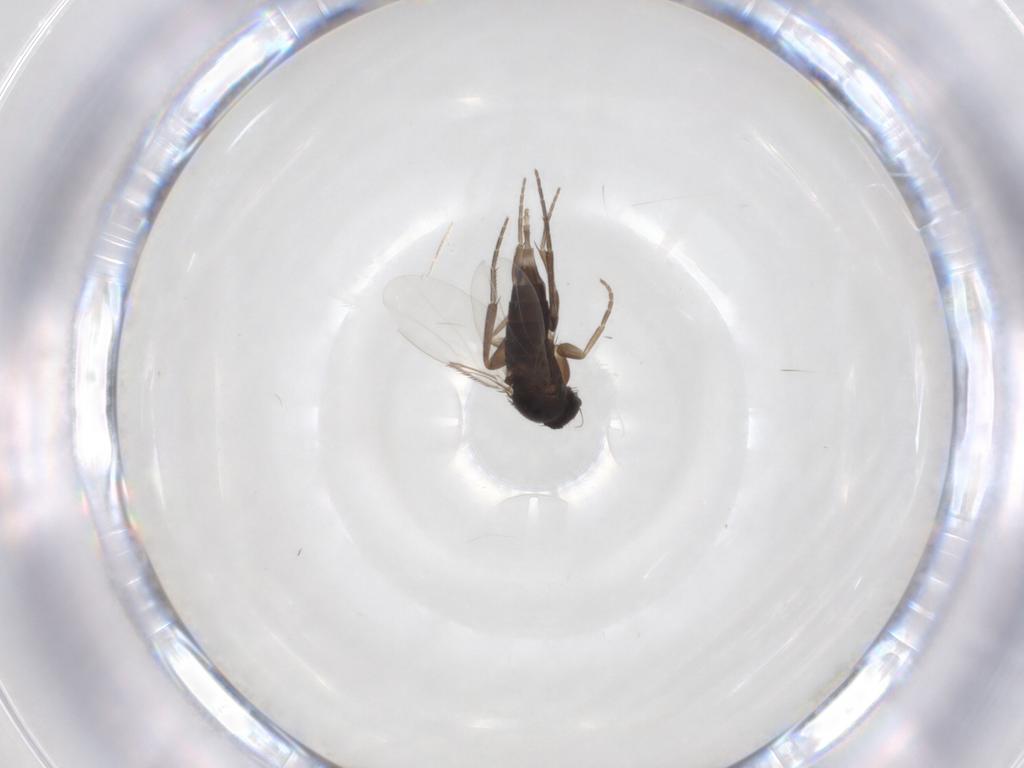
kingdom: Animalia
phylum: Arthropoda
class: Insecta
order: Diptera
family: Phoridae
